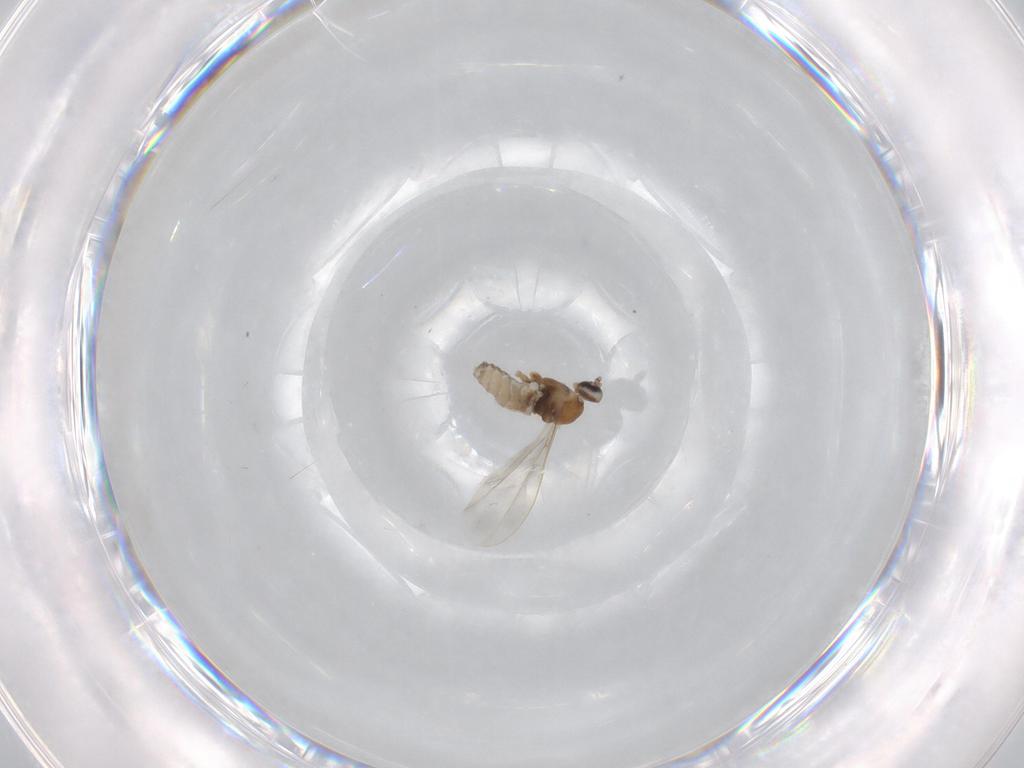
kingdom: Animalia
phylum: Arthropoda
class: Insecta
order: Diptera
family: Cecidomyiidae
